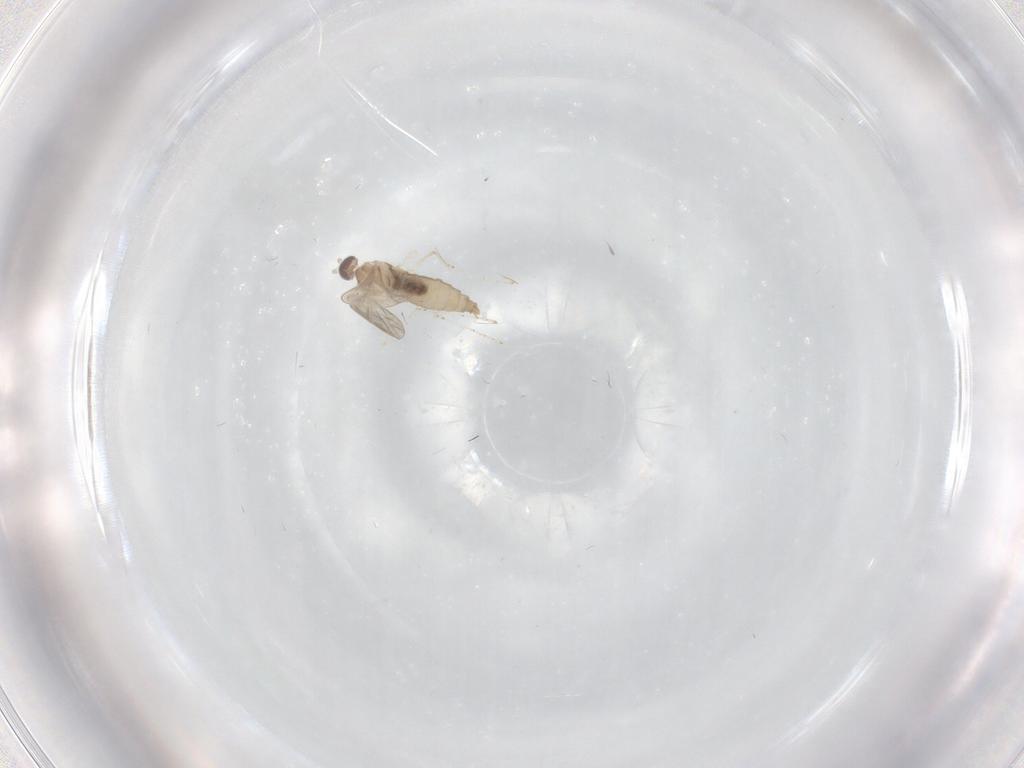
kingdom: Animalia
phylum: Arthropoda
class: Insecta
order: Diptera
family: Cecidomyiidae
